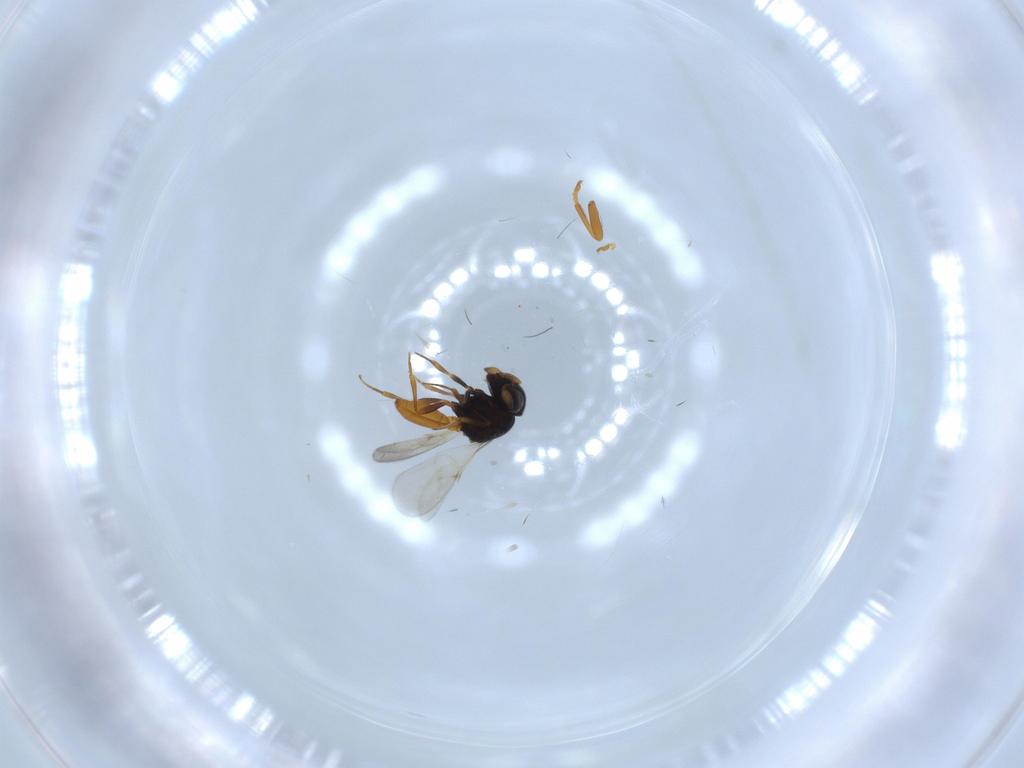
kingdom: Animalia
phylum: Arthropoda
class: Insecta
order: Hymenoptera
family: Scelionidae
